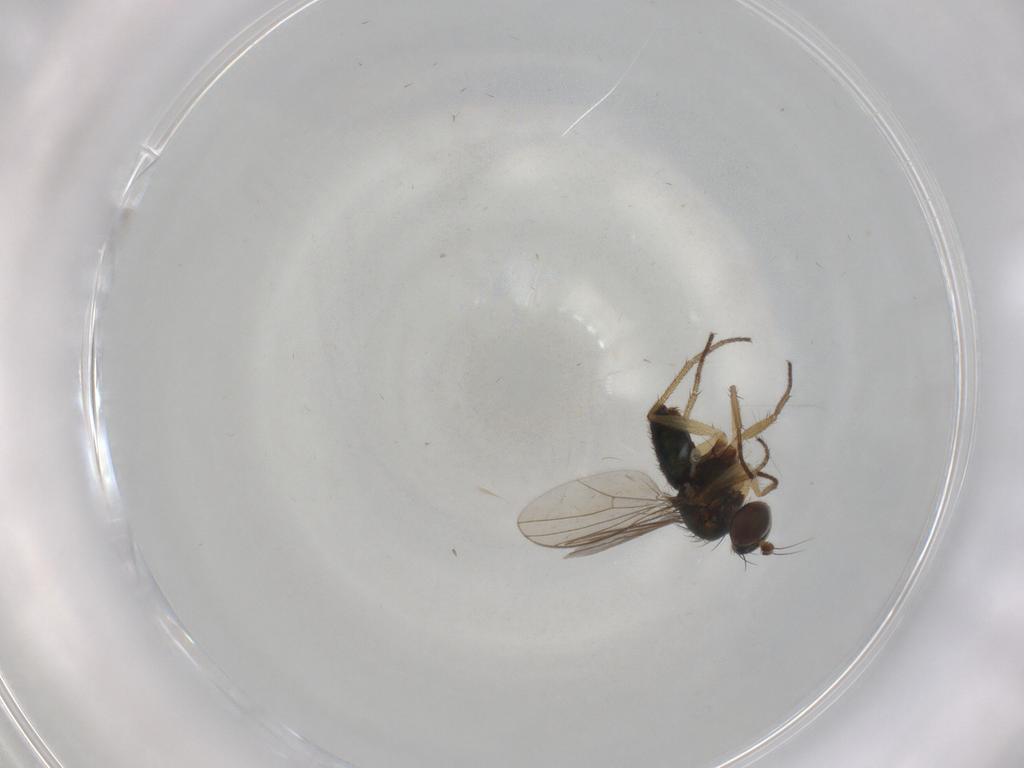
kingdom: Animalia
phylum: Arthropoda
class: Insecta
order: Diptera
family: Dolichopodidae
